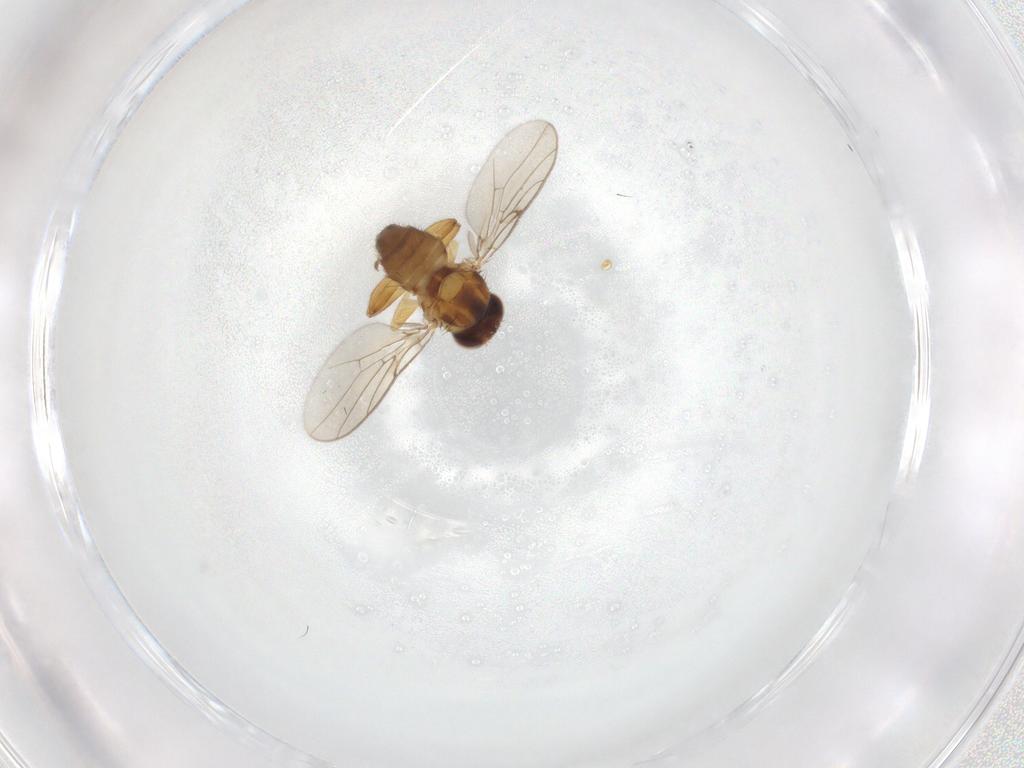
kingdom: Animalia
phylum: Arthropoda
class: Insecta
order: Diptera
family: Chloropidae
